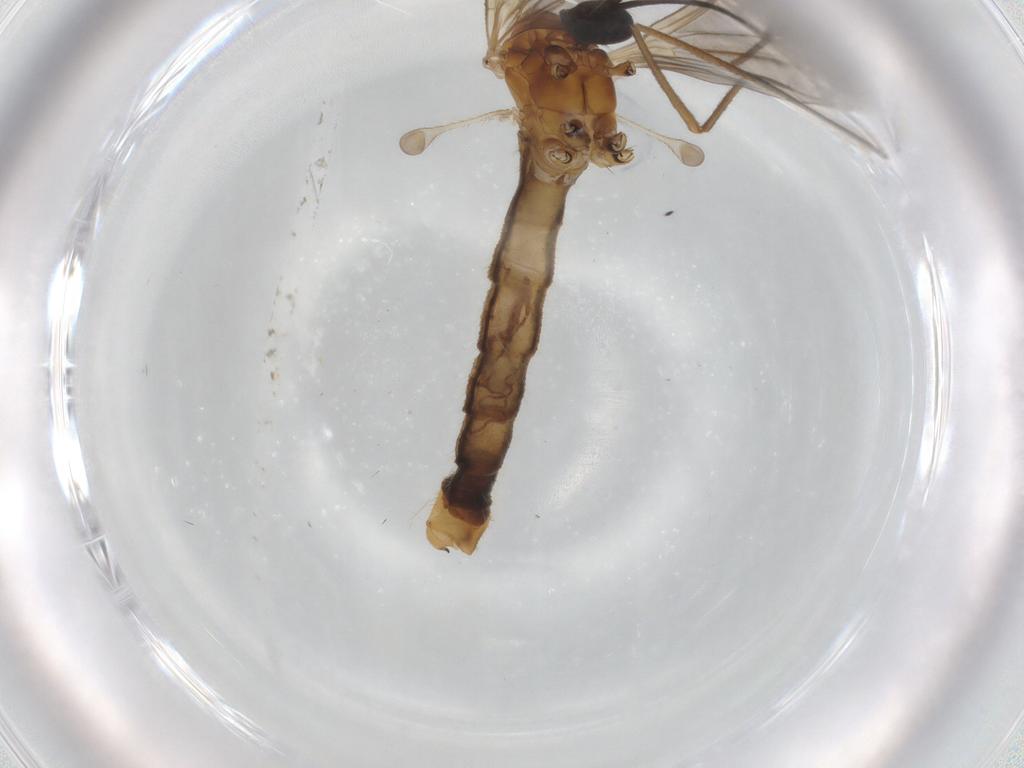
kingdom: Animalia
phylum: Arthropoda
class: Insecta
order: Diptera
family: Limoniidae
